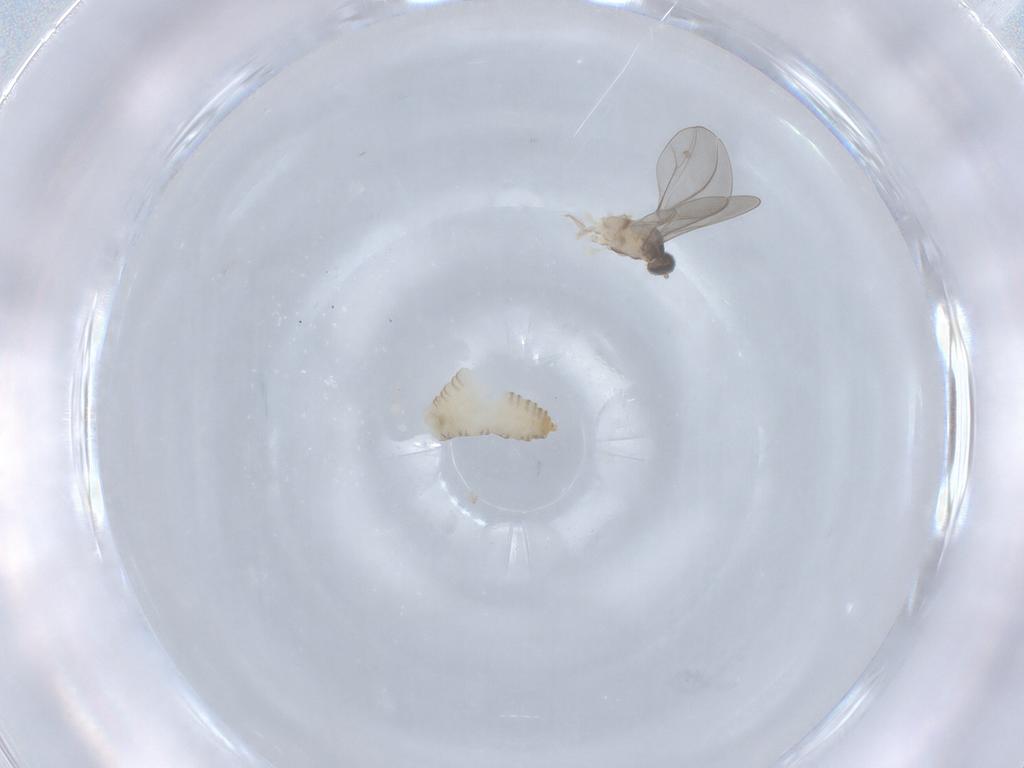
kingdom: Animalia
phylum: Arthropoda
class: Insecta
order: Diptera
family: Cecidomyiidae
